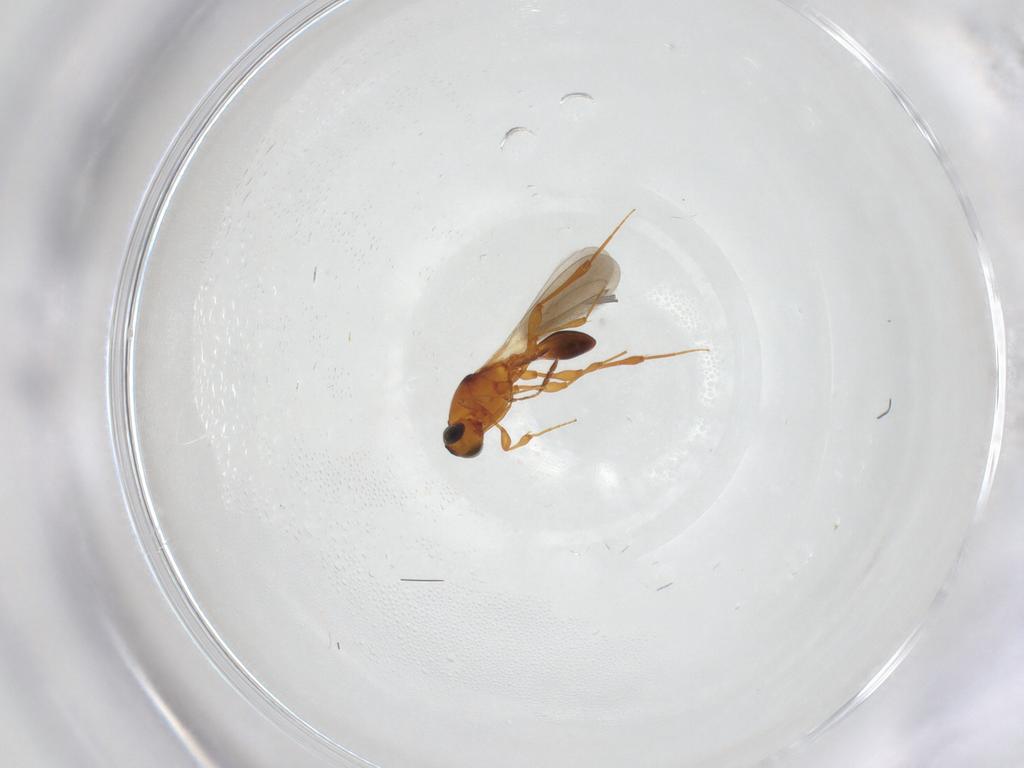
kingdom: Animalia
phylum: Arthropoda
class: Insecta
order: Hymenoptera
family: Platygastridae
